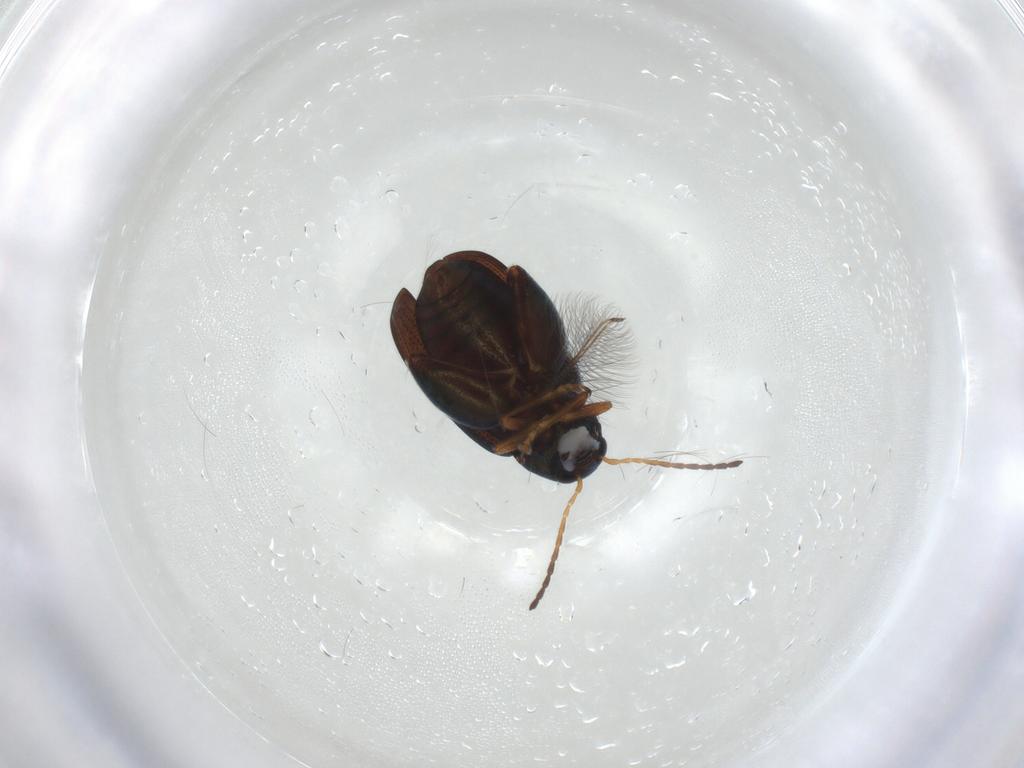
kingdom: Animalia
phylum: Arthropoda
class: Insecta
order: Coleoptera
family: Chrysomelidae
